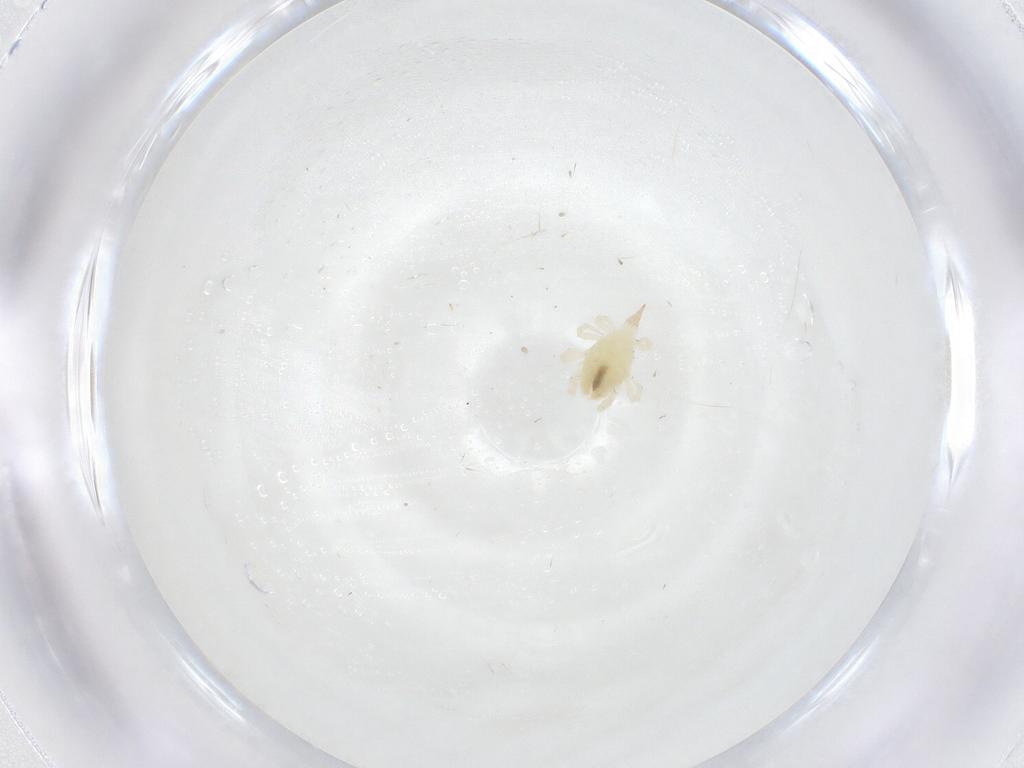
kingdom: Animalia
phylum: Arthropoda
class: Arachnida
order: Trombidiformes
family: Bdellidae
